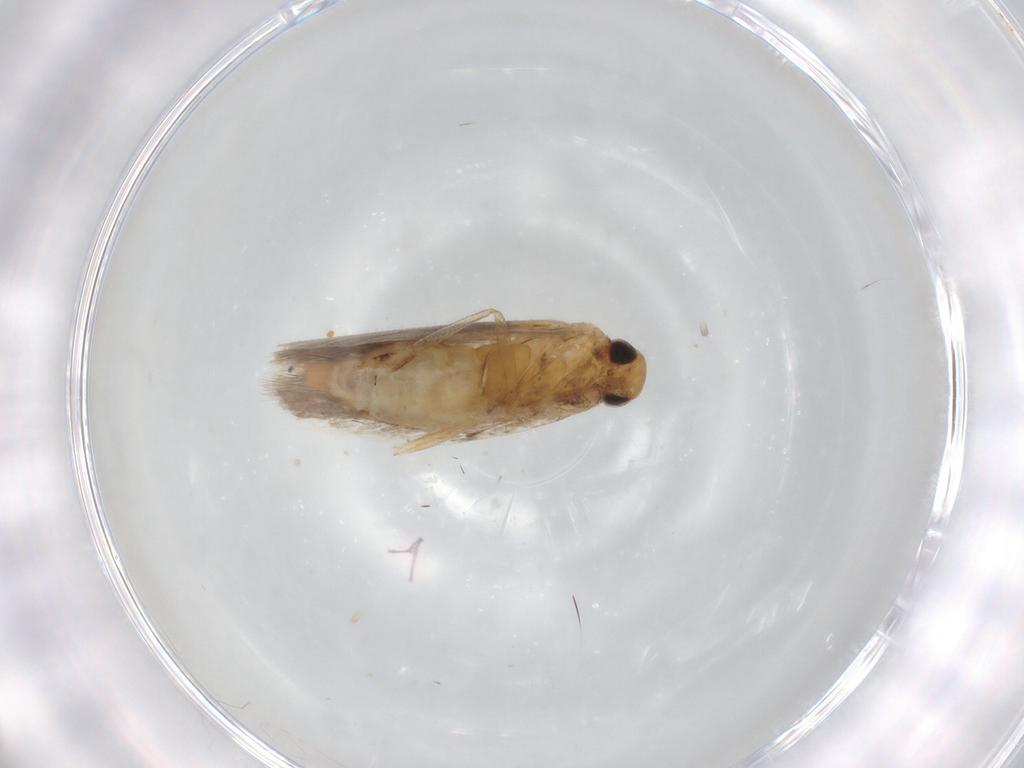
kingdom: Animalia
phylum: Arthropoda
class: Insecta
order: Lepidoptera
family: Gelechiidae
